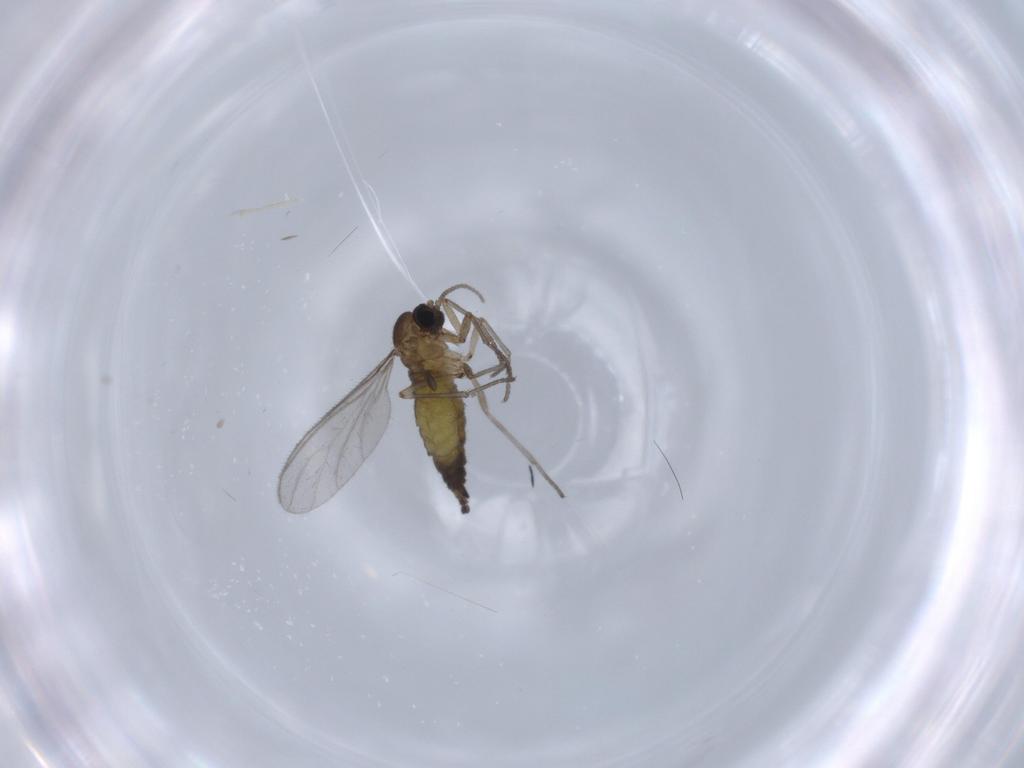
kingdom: Animalia
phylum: Arthropoda
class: Insecta
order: Diptera
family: Sciaridae
